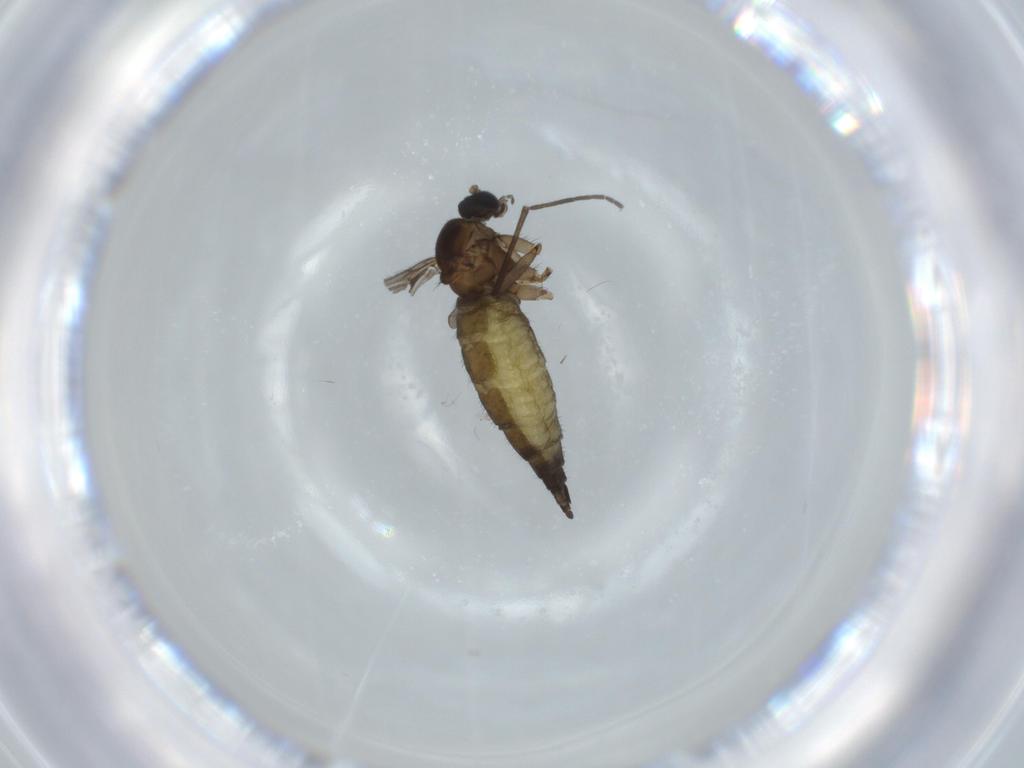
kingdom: Animalia
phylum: Arthropoda
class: Insecta
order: Diptera
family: Sciaridae
